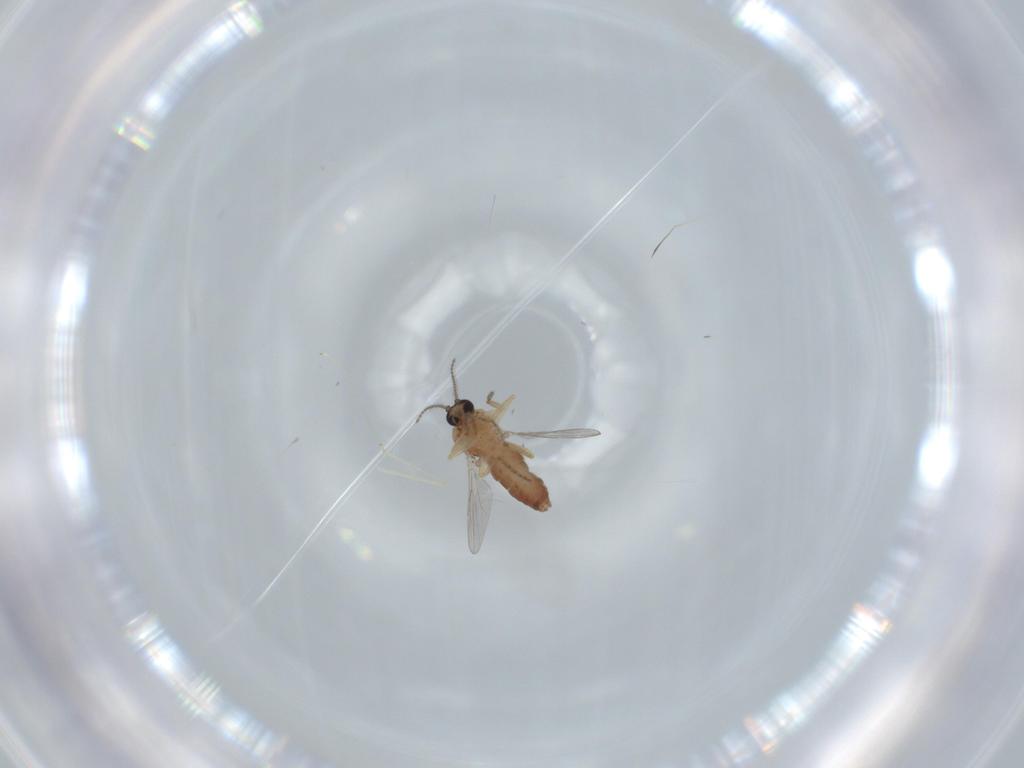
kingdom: Animalia
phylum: Arthropoda
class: Insecta
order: Diptera
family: Ceratopogonidae
